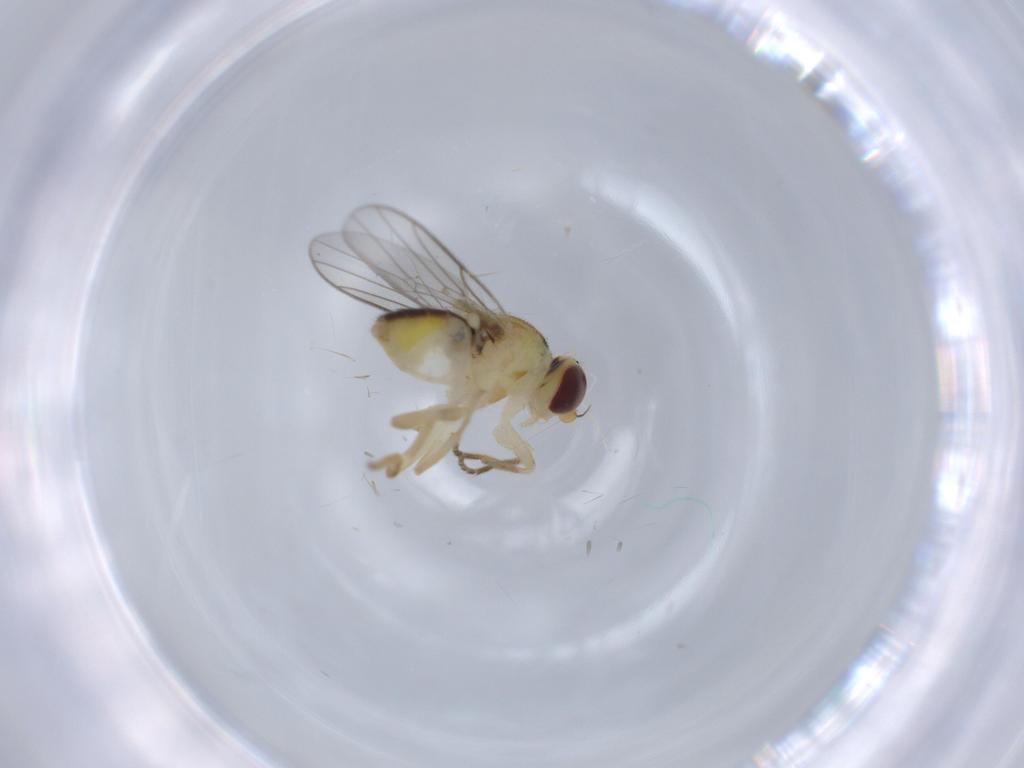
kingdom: Animalia
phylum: Arthropoda
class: Insecta
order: Diptera
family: Chloropidae
